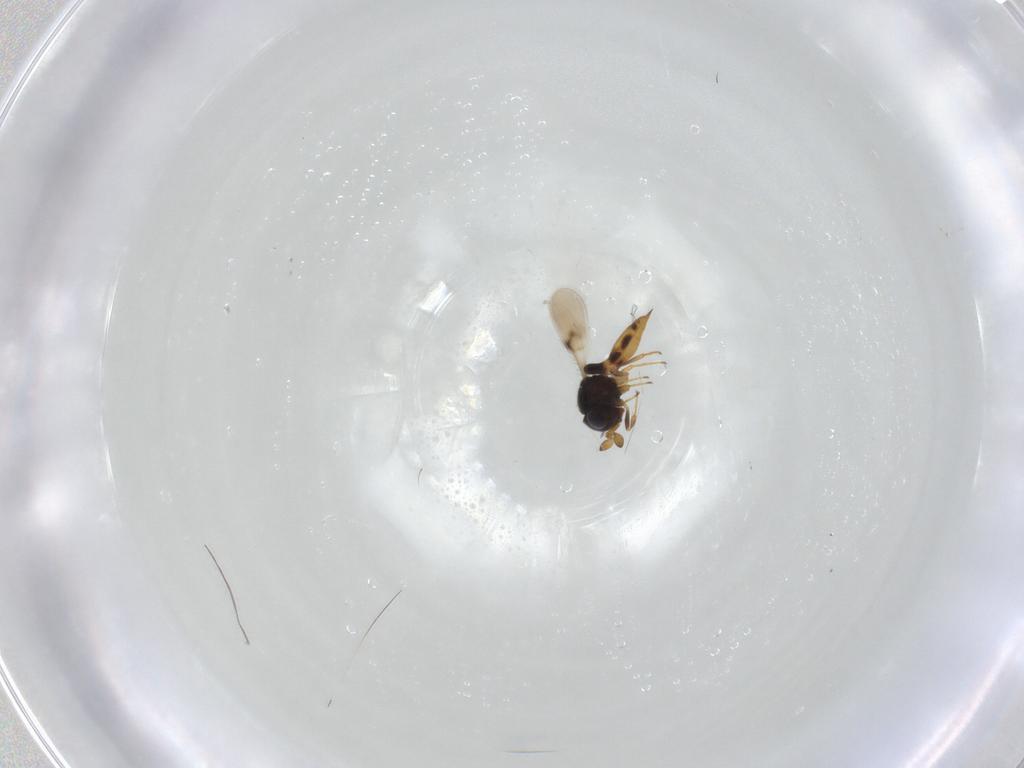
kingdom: Animalia
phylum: Arthropoda
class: Insecta
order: Hymenoptera
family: Scelionidae
